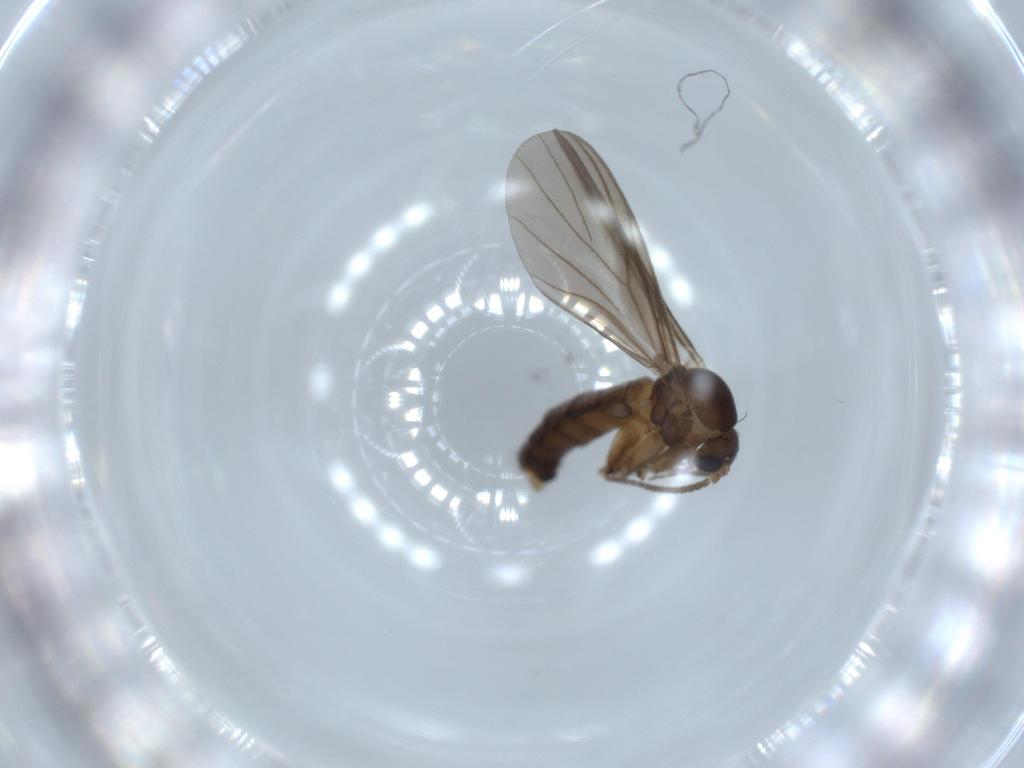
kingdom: Animalia
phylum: Arthropoda
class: Insecta
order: Diptera
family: Mycetophilidae
